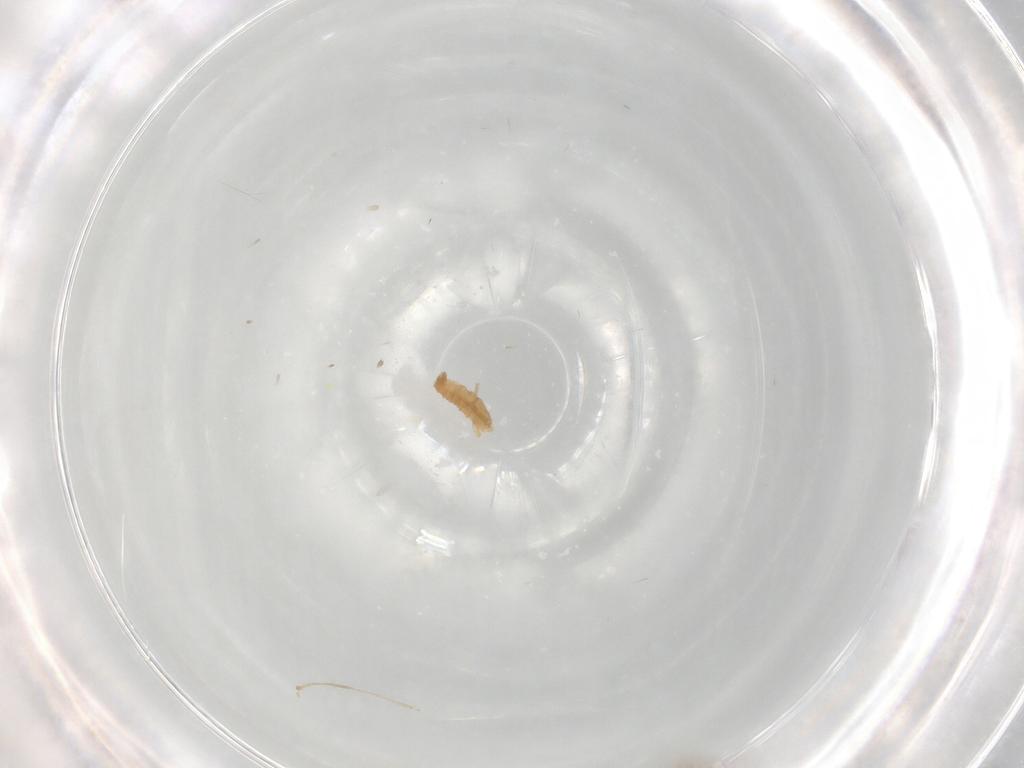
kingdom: Animalia
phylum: Arthropoda
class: Insecta
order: Diptera
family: Cecidomyiidae
